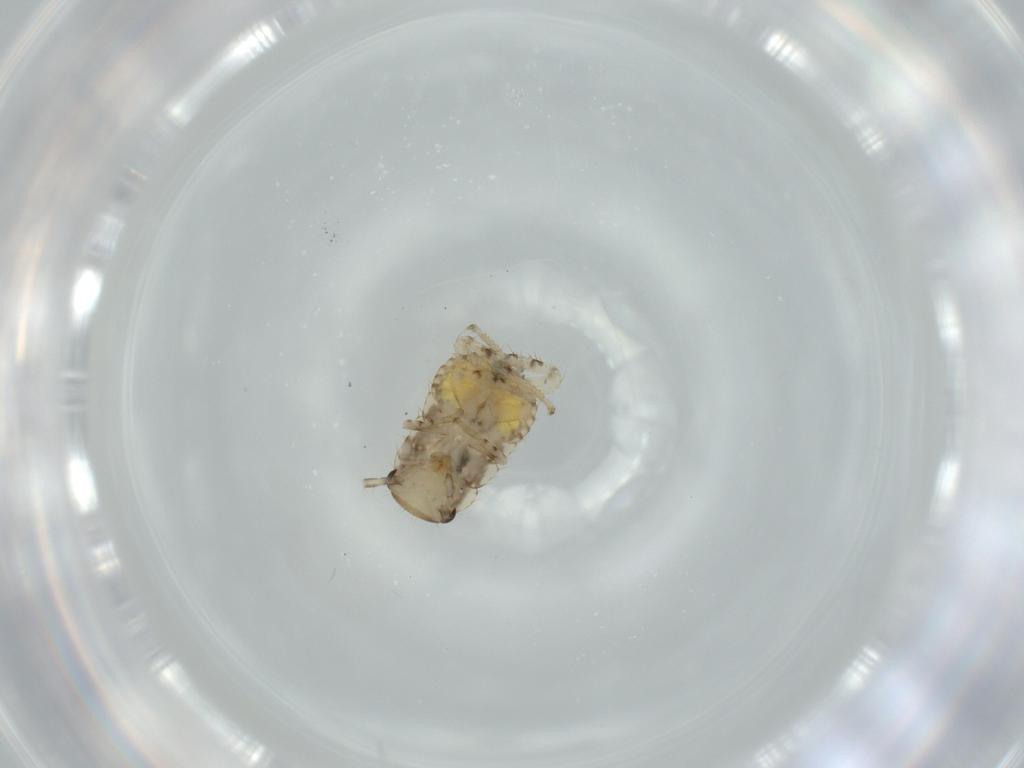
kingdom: Animalia
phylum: Arthropoda
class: Insecta
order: Blattodea
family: Ectobiidae
